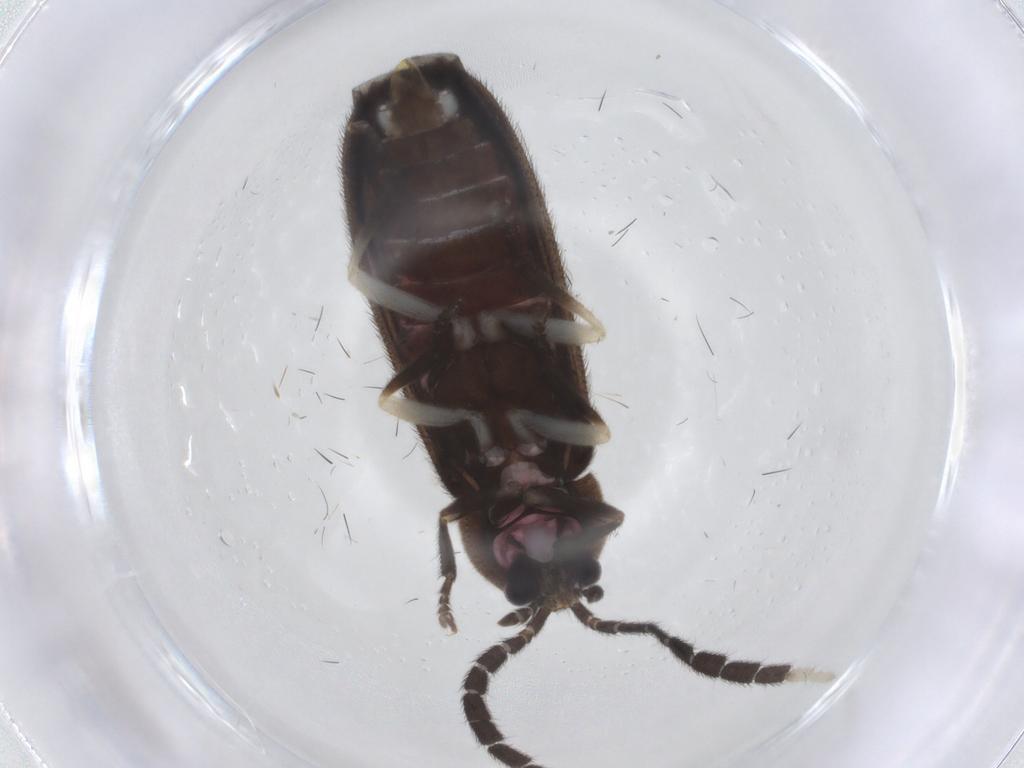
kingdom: Animalia
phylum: Arthropoda
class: Insecta
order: Coleoptera
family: Lampyridae
